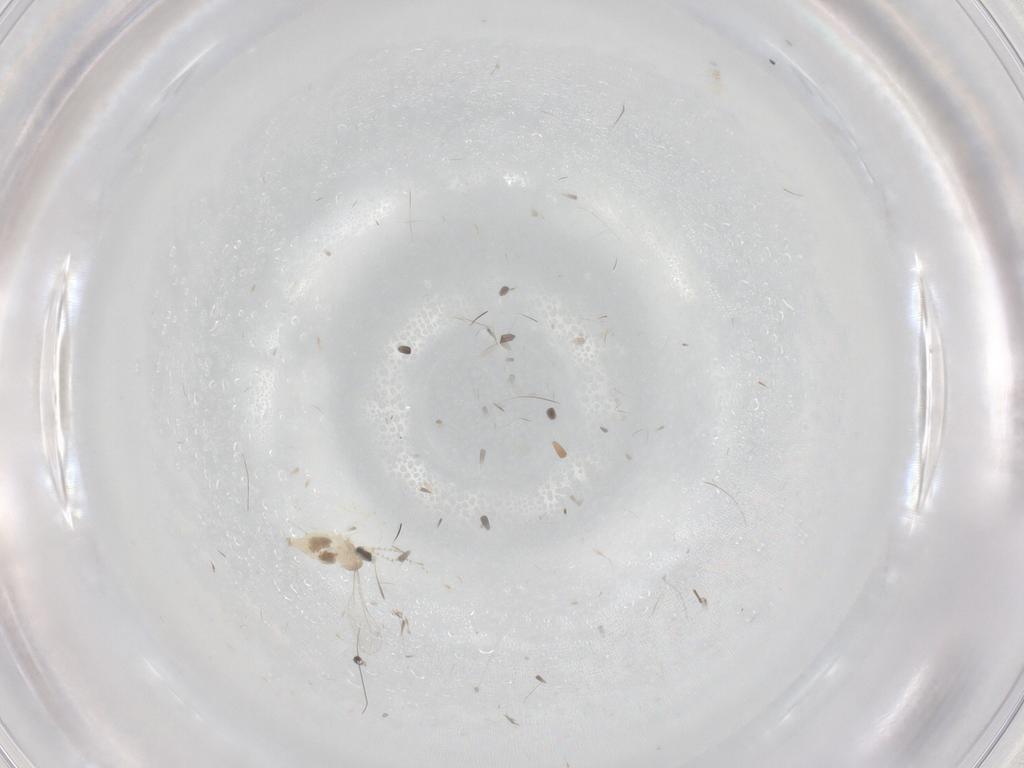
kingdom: Animalia
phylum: Arthropoda
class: Insecta
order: Diptera
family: Cecidomyiidae
